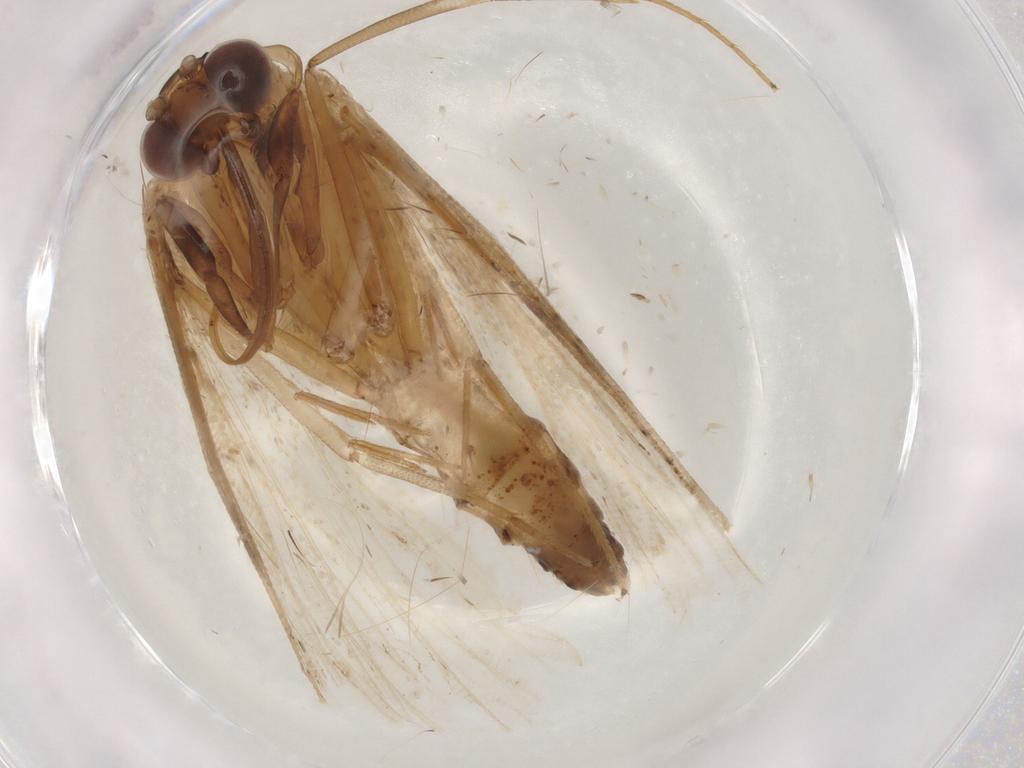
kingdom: Animalia
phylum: Arthropoda
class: Insecta
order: Lepidoptera
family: Erebidae
